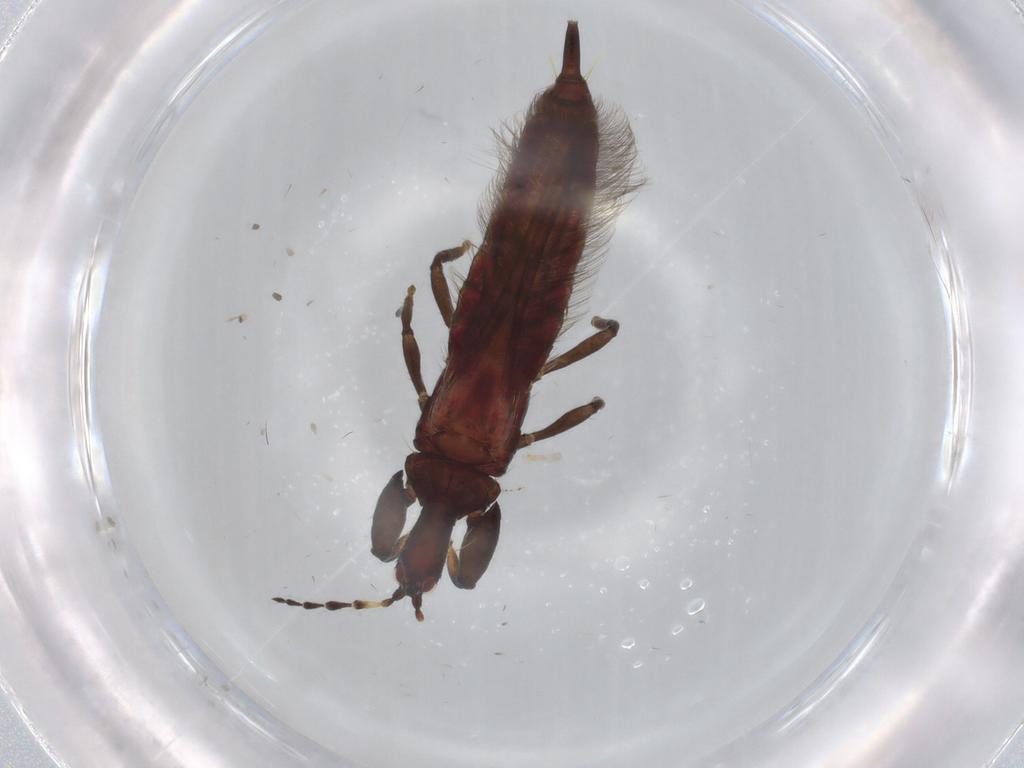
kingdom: Animalia
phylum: Arthropoda
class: Insecta
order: Thysanoptera
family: Phlaeothripidae
